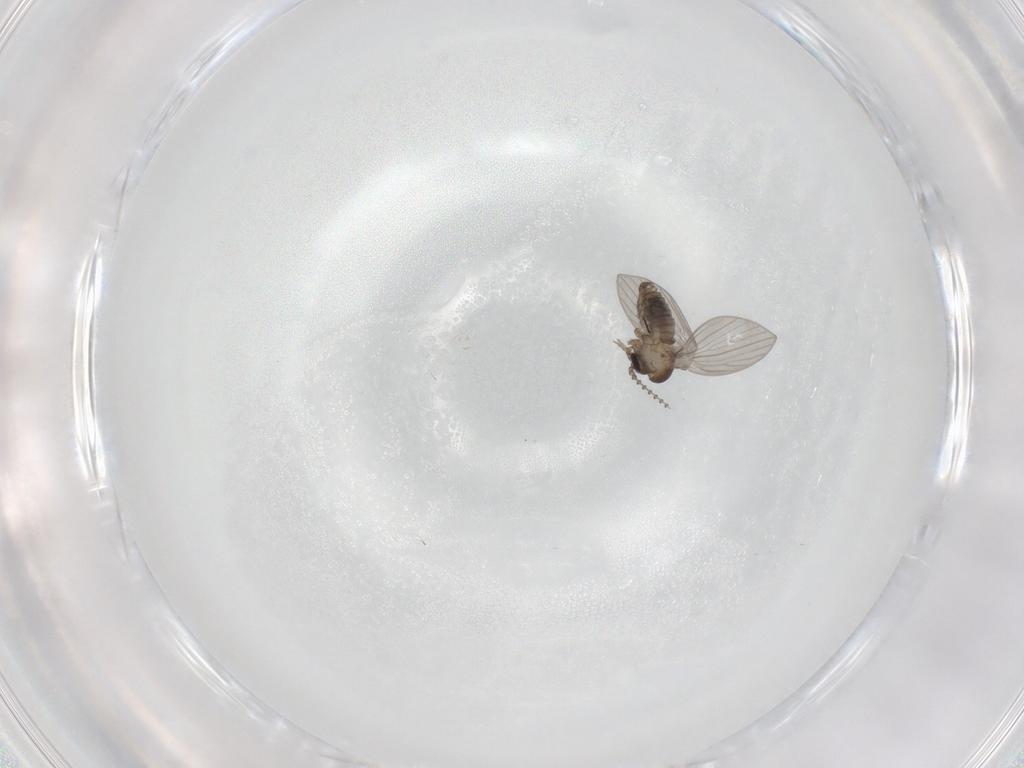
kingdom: Animalia
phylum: Arthropoda
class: Insecta
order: Diptera
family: Psychodidae
